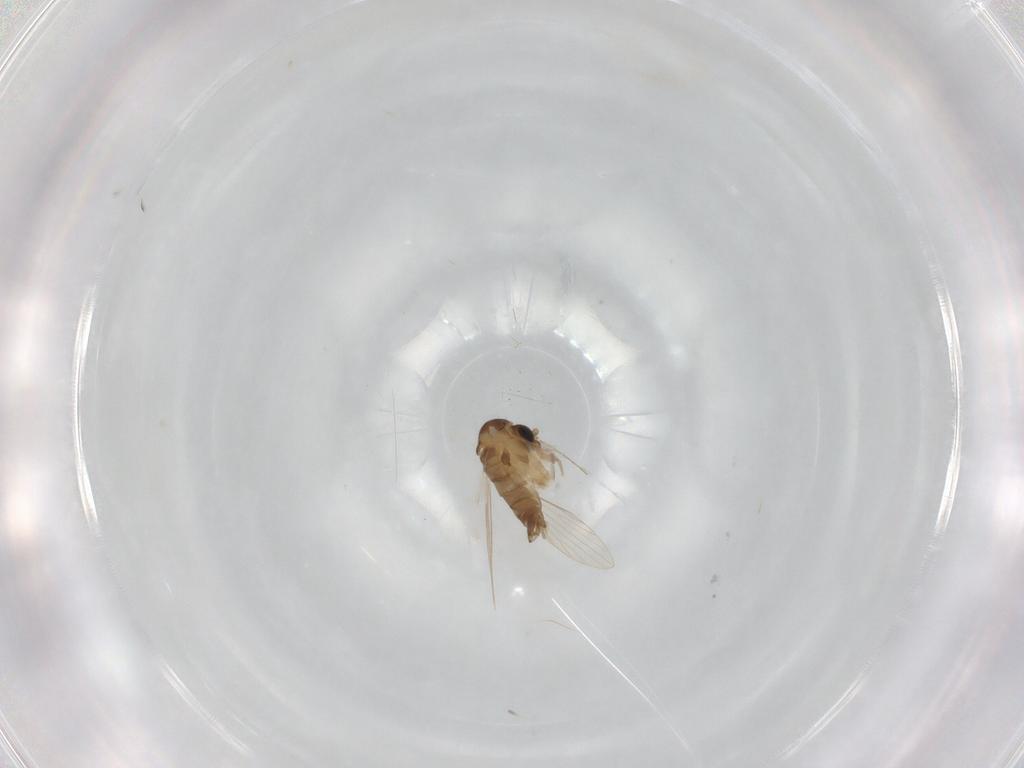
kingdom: Animalia
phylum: Arthropoda
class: Insecta
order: Diptera
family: Psychodidae
